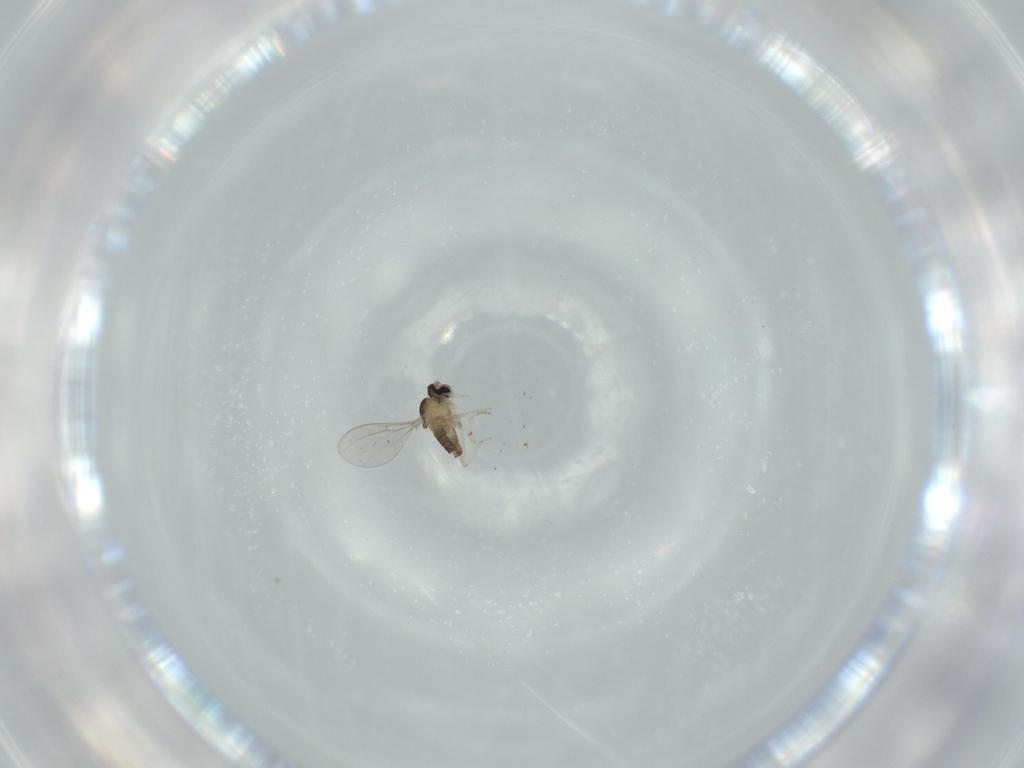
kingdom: Animalia
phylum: Arthropoda
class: Insecta
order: Diptera
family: Cecidomyiidae
